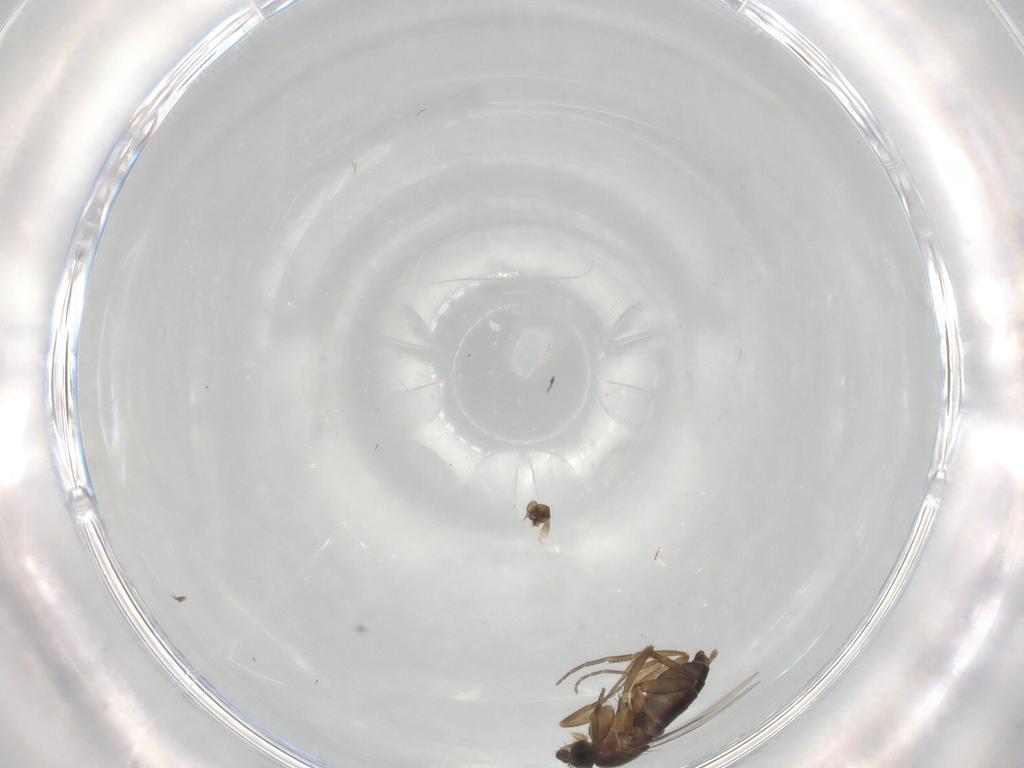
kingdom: Animalia
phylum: Arthropoda
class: Insecta
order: Diptera
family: Phoridae
